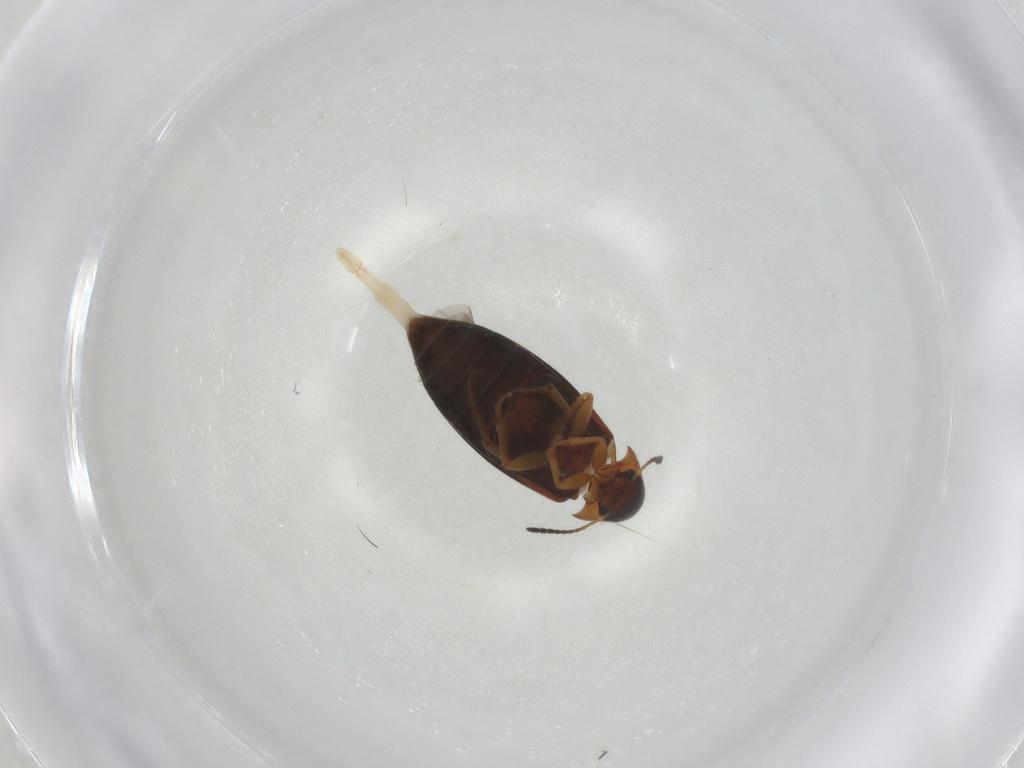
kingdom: Animalia
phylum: Arthropoda
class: Insecta
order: Coleoptera
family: Scraptiidae
